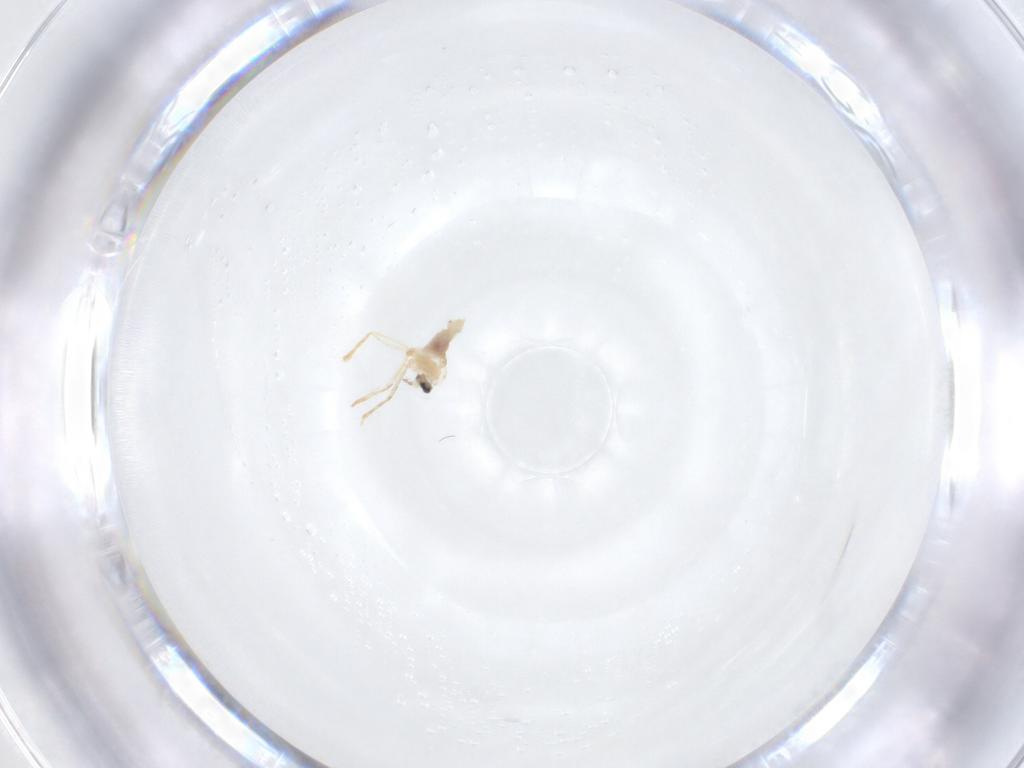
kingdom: Animalia
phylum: Arthropoda
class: Insecta
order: Diptera
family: Cecidomyiidae
